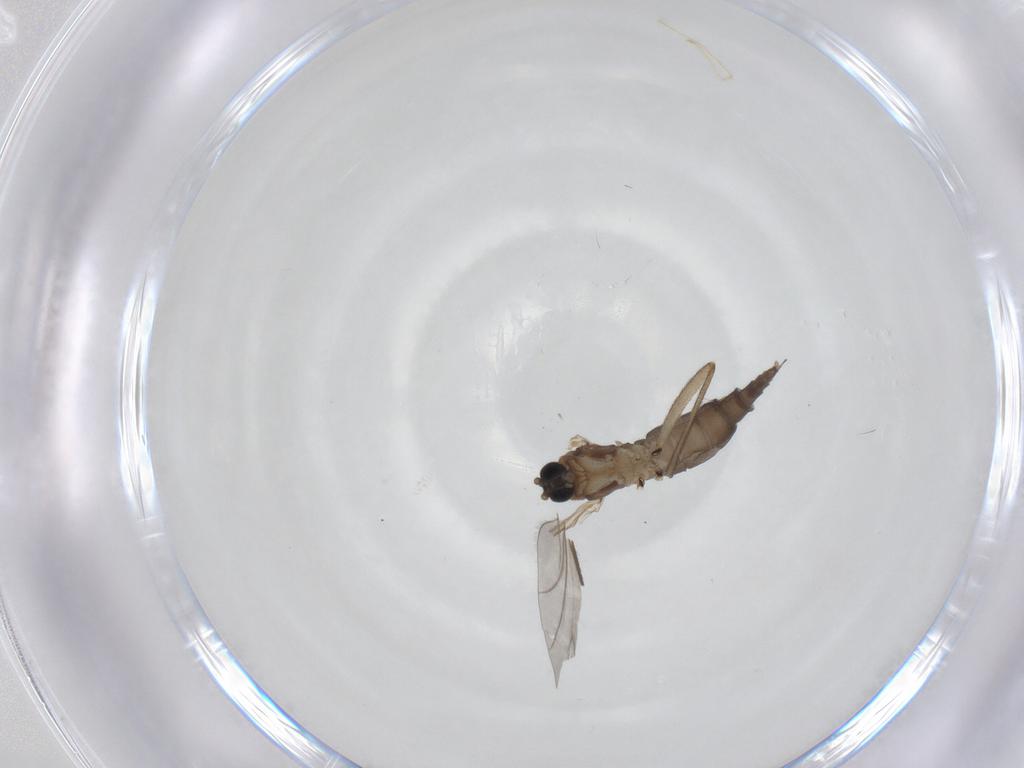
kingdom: Animalia
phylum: Arthropoda
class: Insecta
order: Diptera
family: Sciaridae
